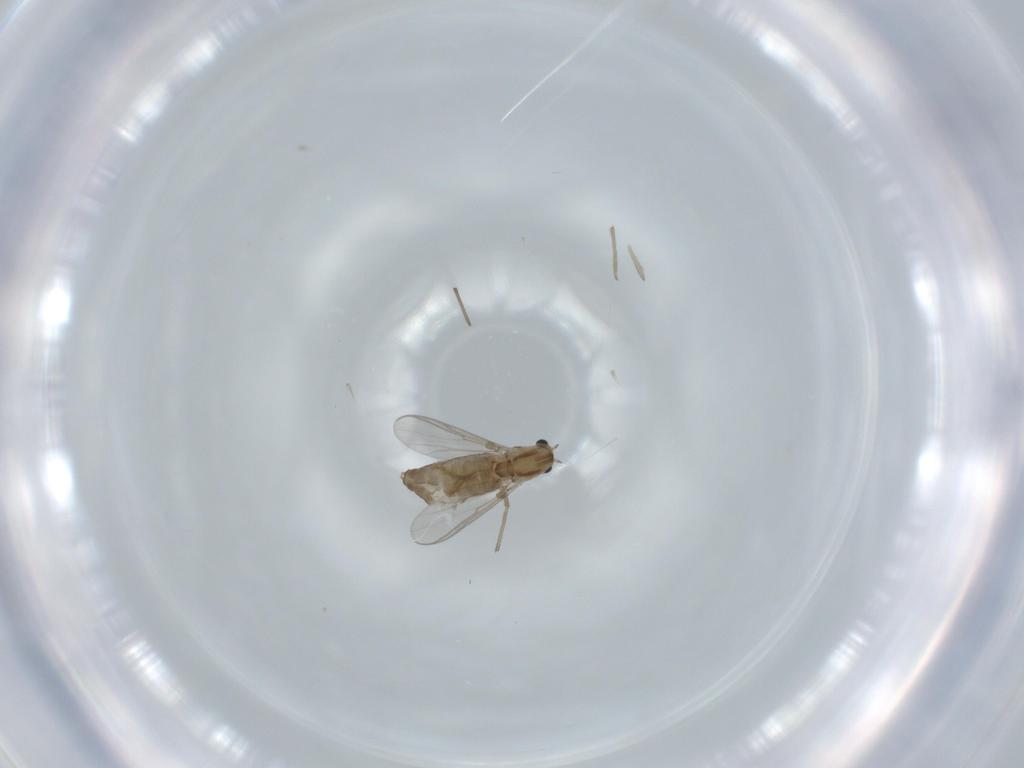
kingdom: Animalia
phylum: Arthropoda
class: Insecta
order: Diptera
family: Chironomidae
